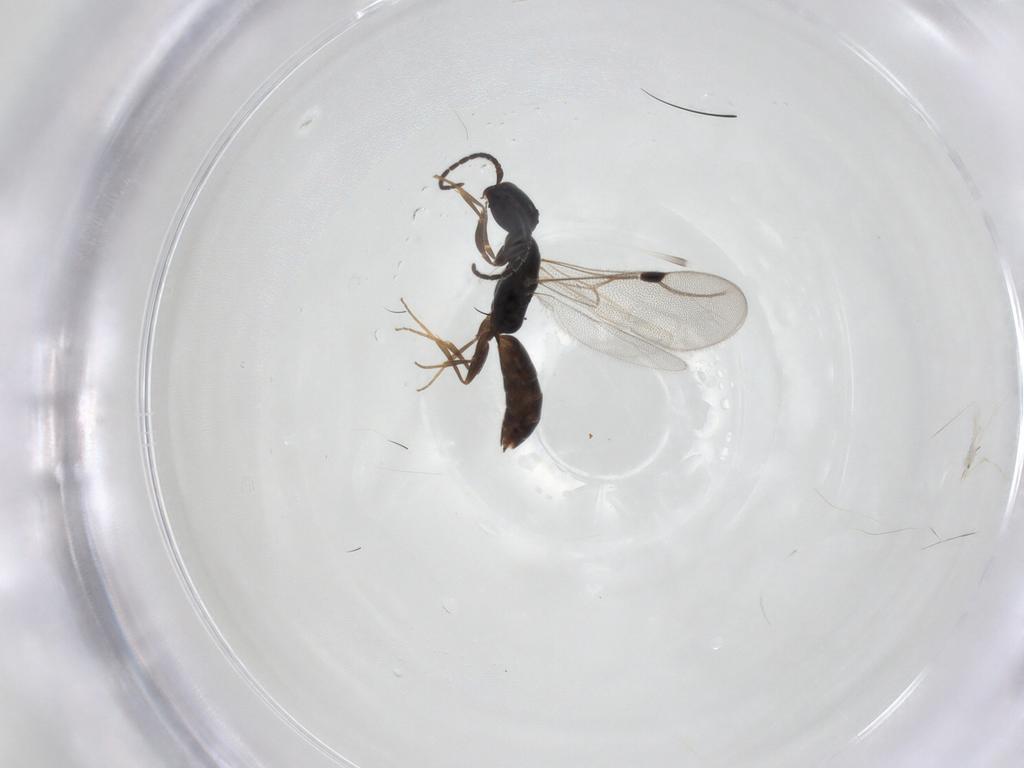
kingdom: Animalia
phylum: Arthropoda
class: Insecta
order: Hymenoptera
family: Bethylidae
